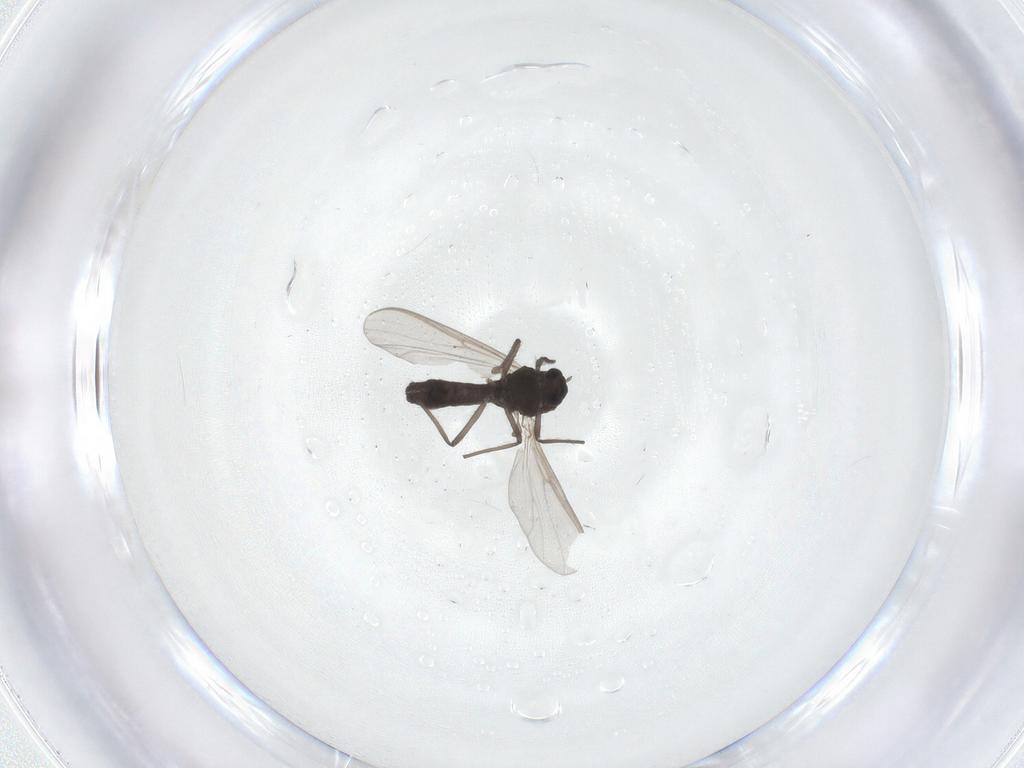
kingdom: Animalia
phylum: Arthropoda
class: Insecta
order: Diptera
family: Chironomidae
